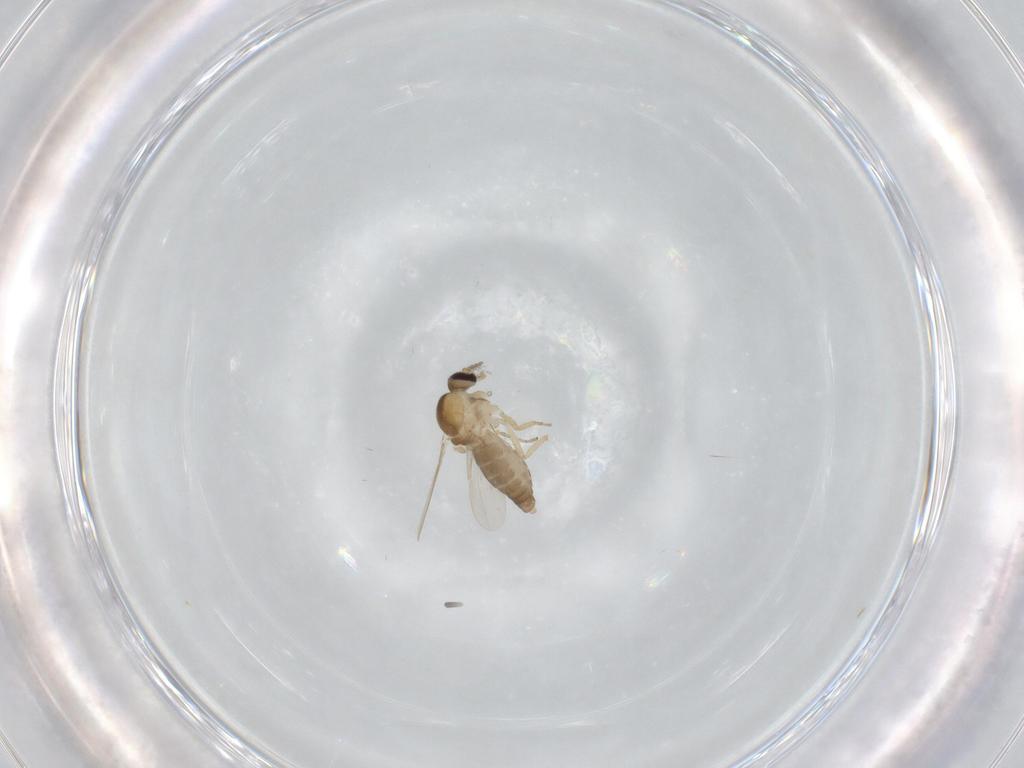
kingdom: Animalia
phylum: Arthropoda
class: Insecta
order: Diptera
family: Ceratopogonidae
